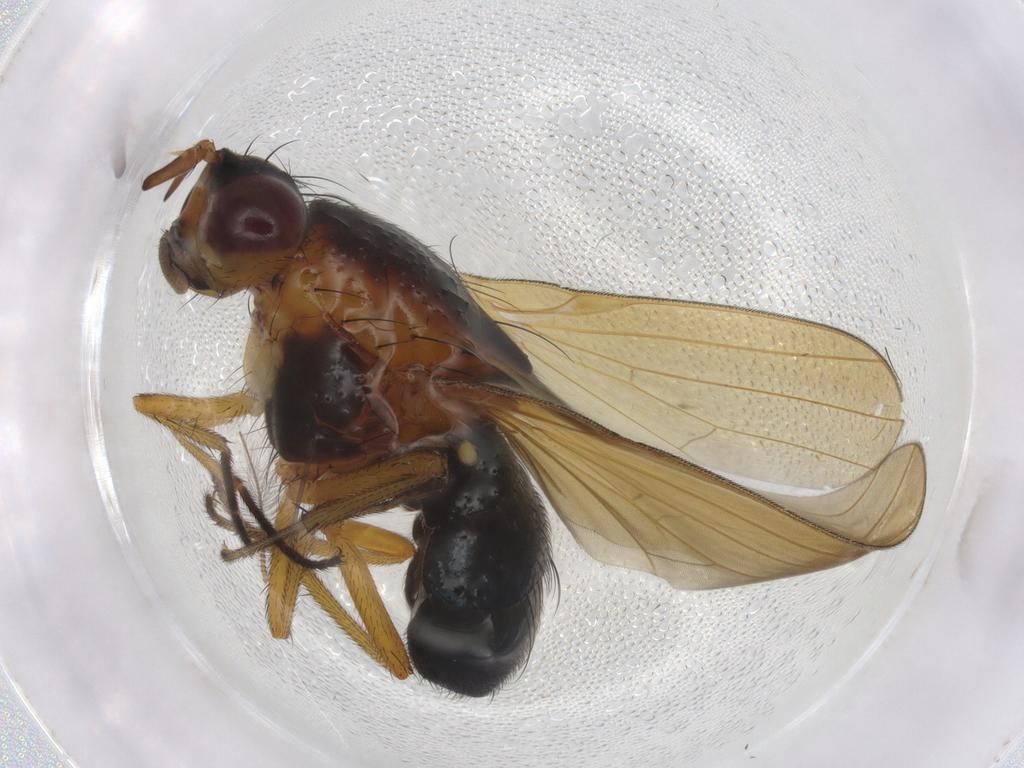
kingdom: Animalia
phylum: Arthropoda
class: Insecta
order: Diptera
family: Lauxaniidae
